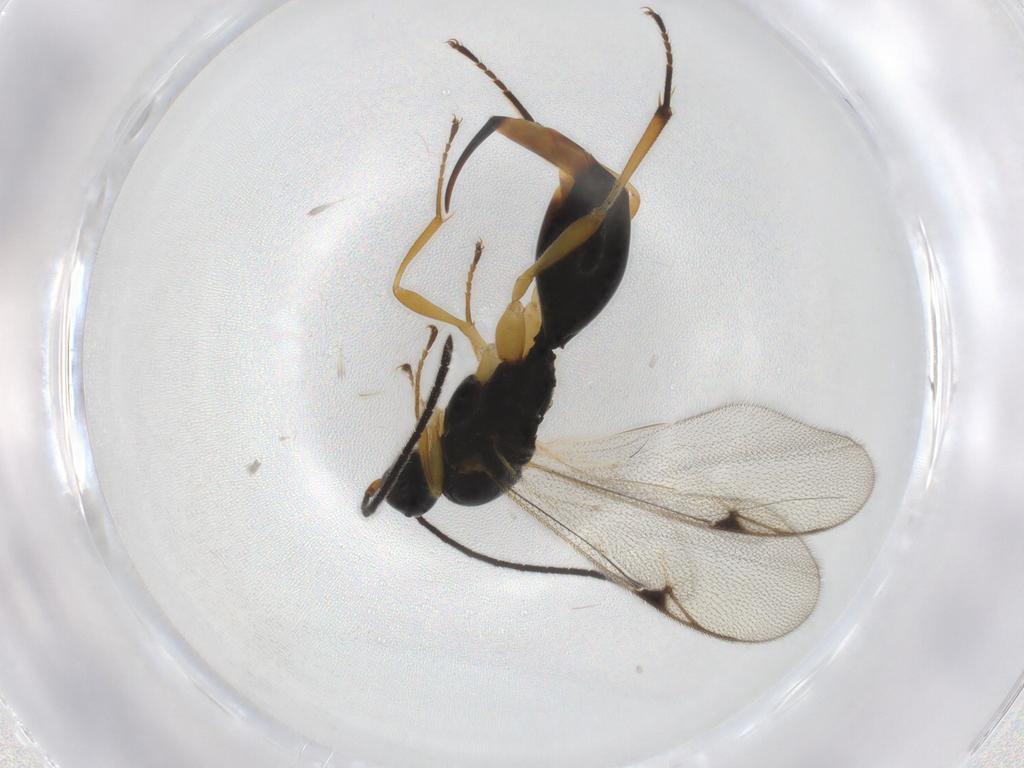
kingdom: Animalia
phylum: Arthropoda
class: Insecta
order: Hymenoptera
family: Proctotrupidae
